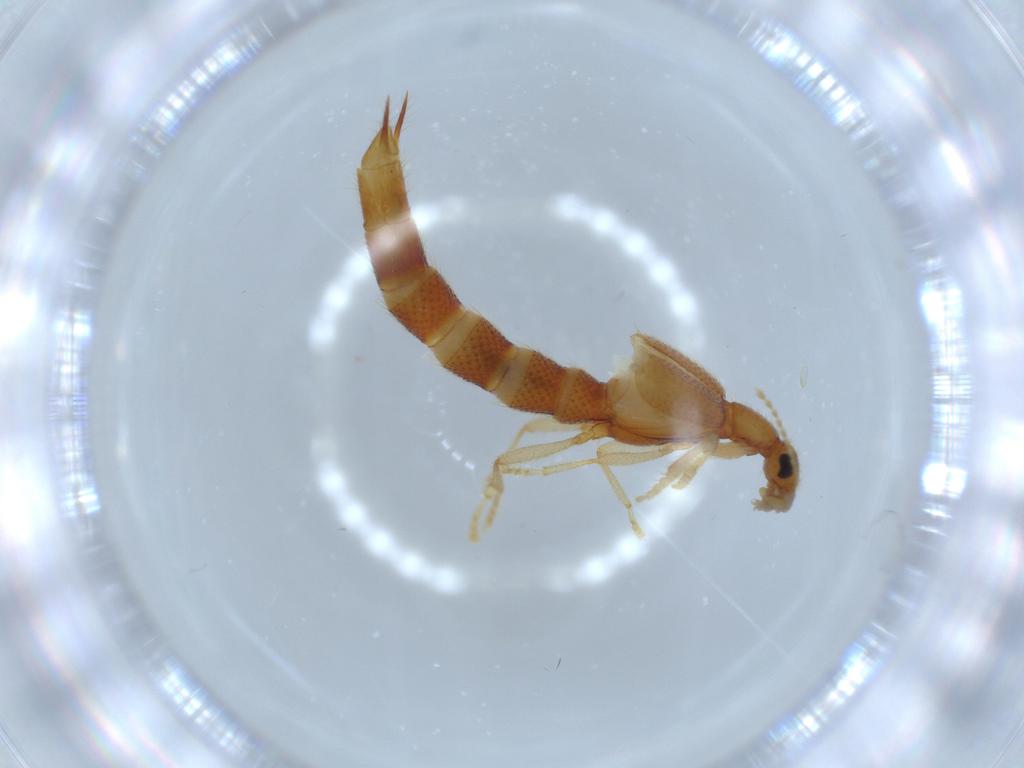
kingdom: Animalia
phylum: Arthropoda
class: Insecta
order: Coleoptera
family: Staphylinidae
